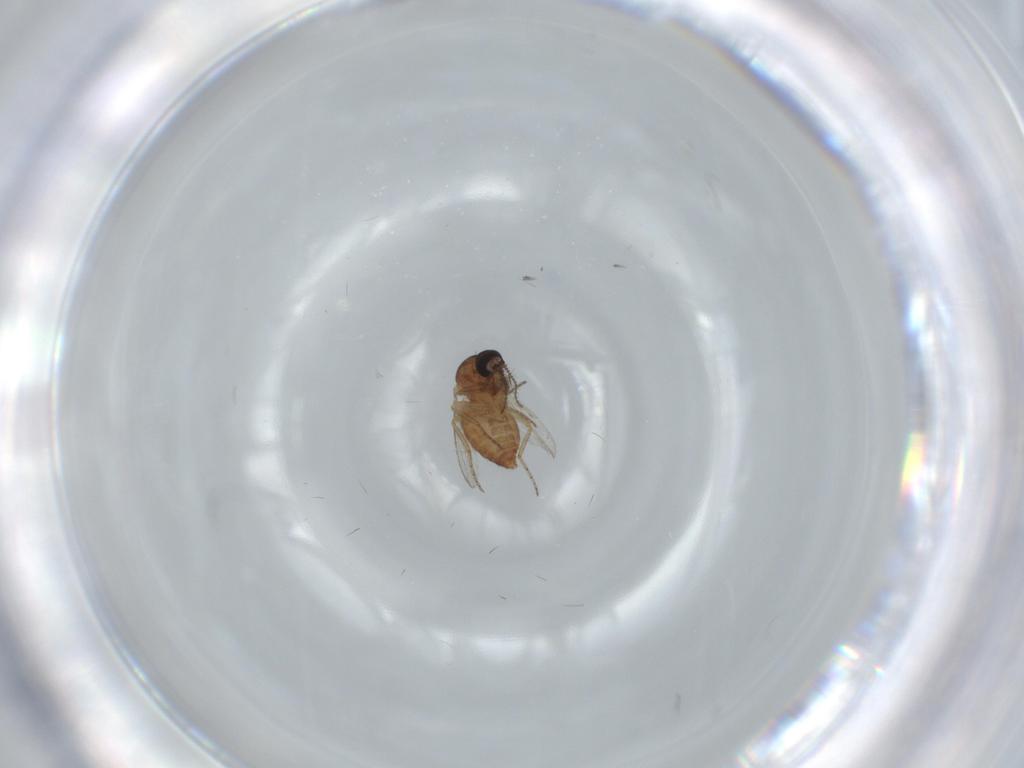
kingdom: Animalia
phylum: Arthropoda
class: Insecta
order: Diptera
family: Ceratopogonidae
